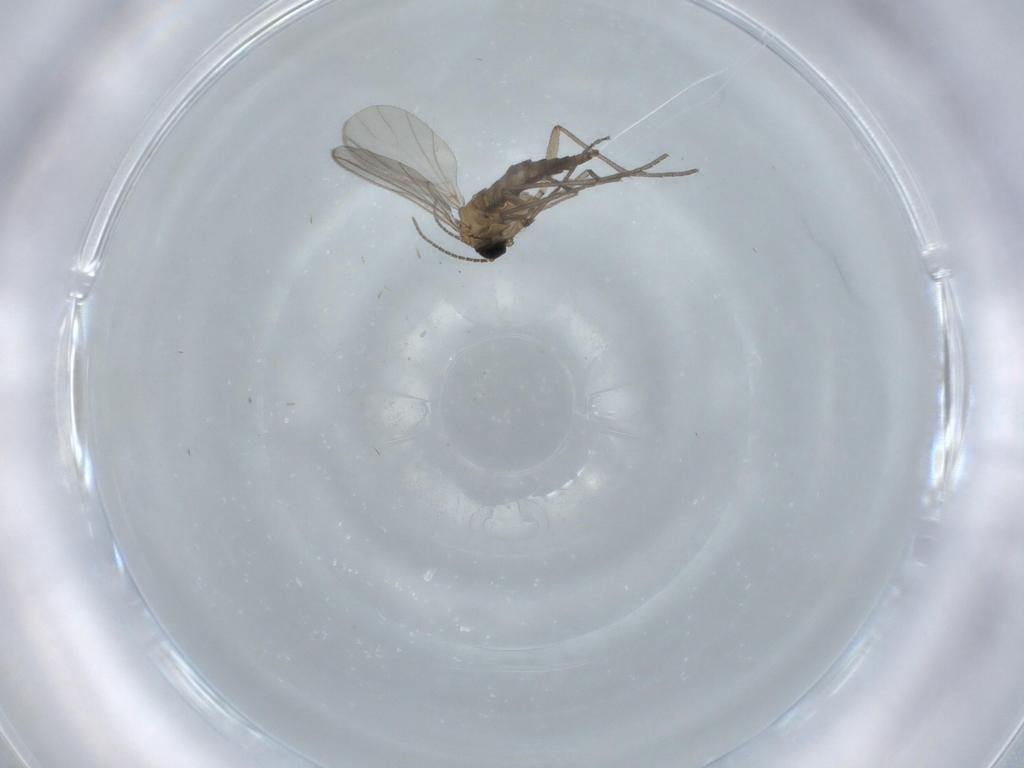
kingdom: Animalia
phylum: Arthropoda
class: Insecta
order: Diptera
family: Sciaridae
